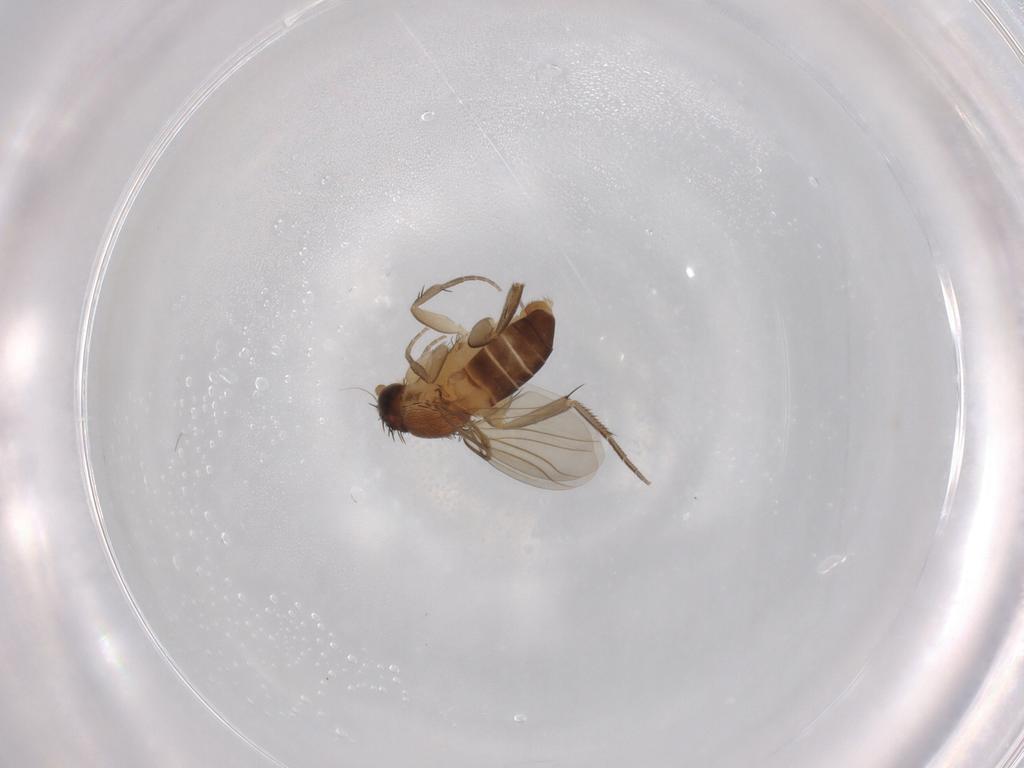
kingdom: Animalia
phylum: Arthropoda
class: Insecta
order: Diptera
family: Phoridae
